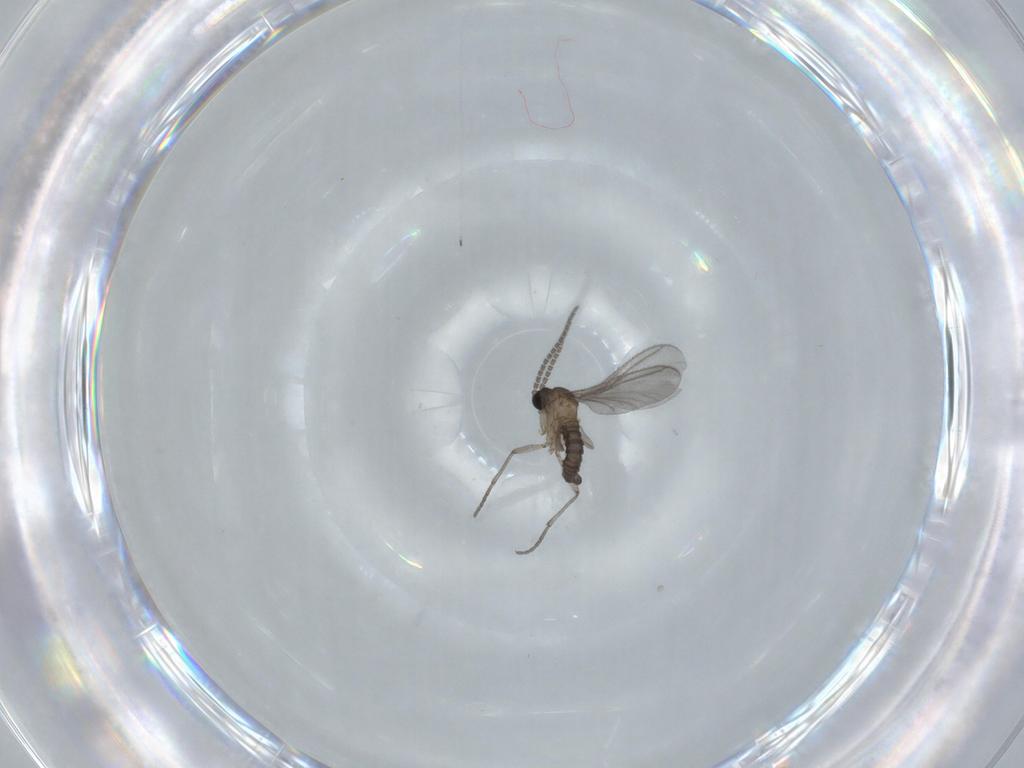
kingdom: Animalia
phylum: Arthropoda
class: Insecta
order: Diptera
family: Sciaridae
